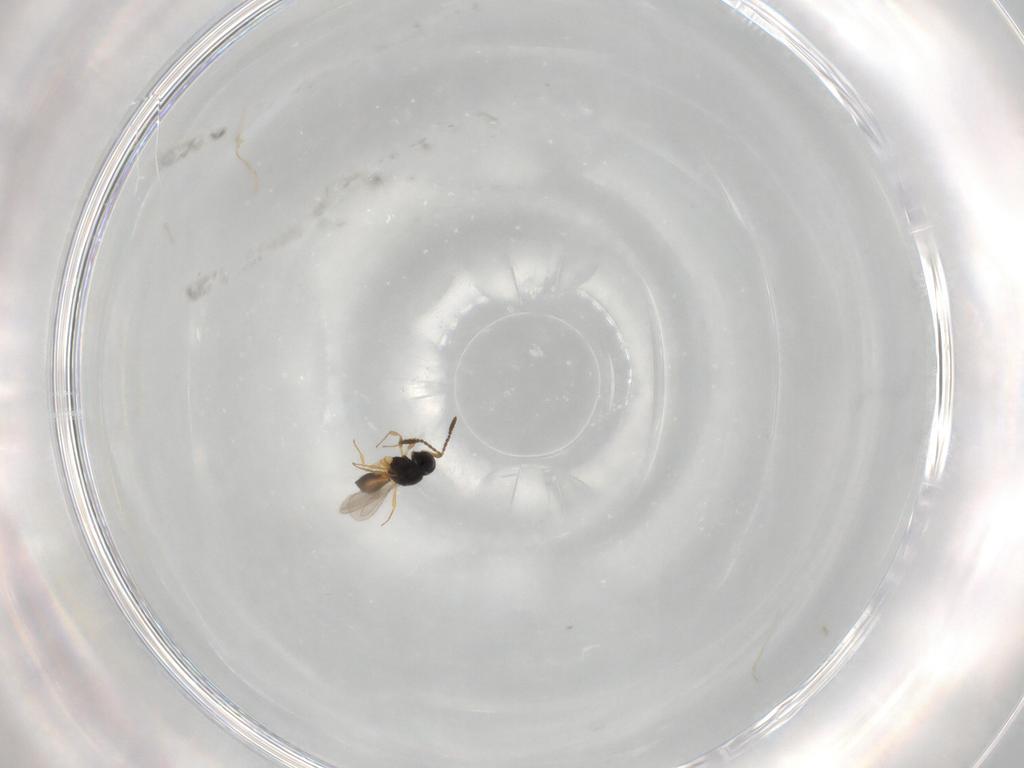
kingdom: Animalia
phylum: Arthropoda
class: Insecta
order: Hymenoptera
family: Scelionidae
